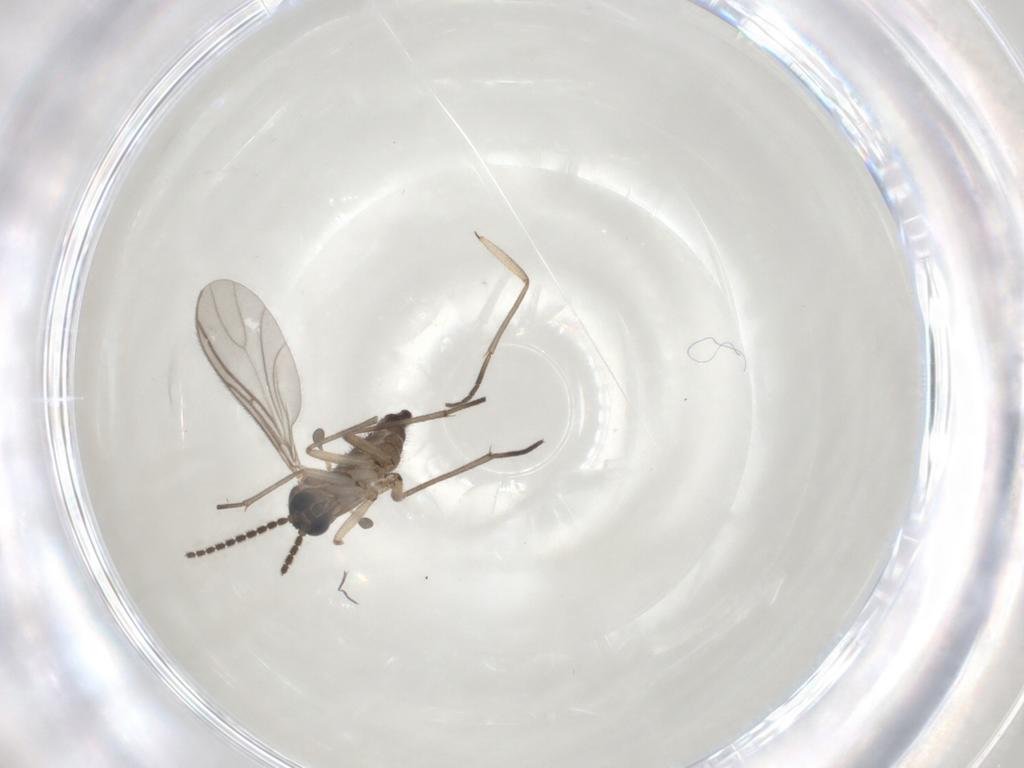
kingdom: Animalia
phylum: Arthropoda
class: Insecta
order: Diptera
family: Sciaridae
